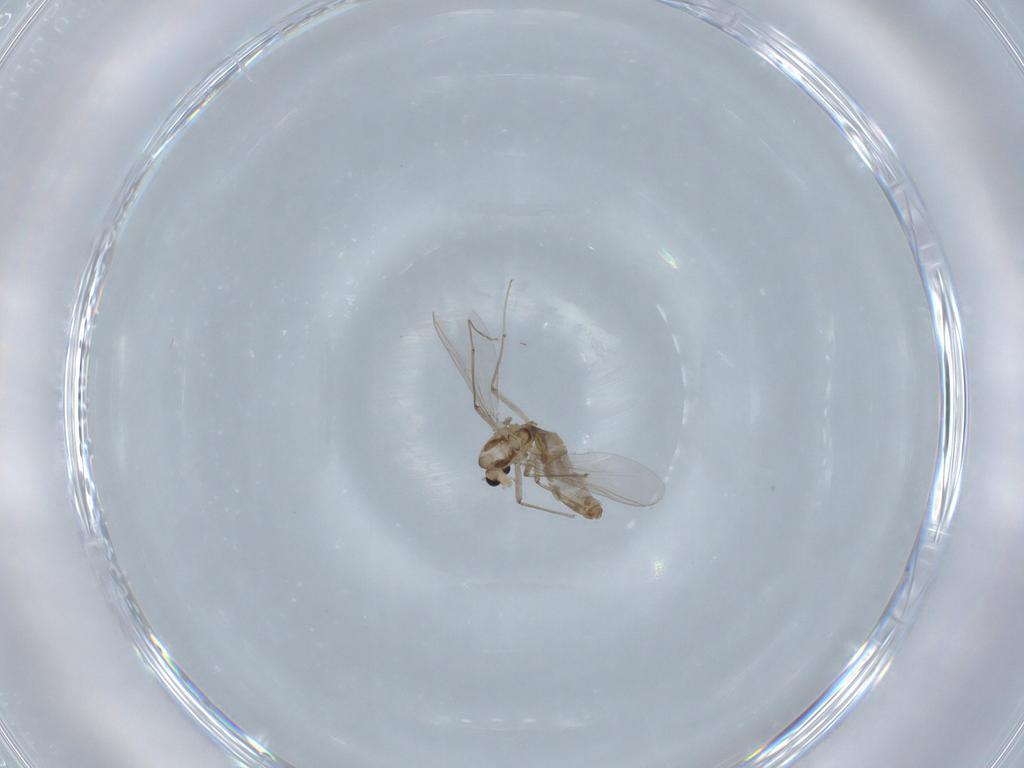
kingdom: Animalia
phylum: Arthropoda
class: Insecta
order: Diptera
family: Chironomidae
